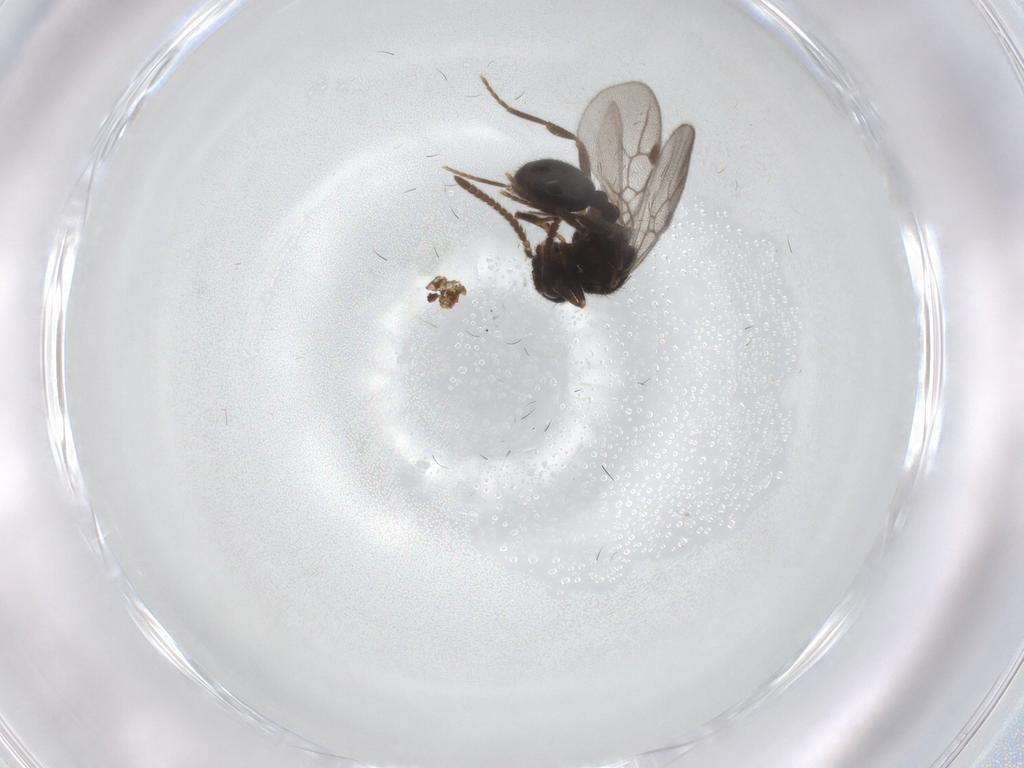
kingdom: Animalia
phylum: Arthropoda
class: Insecta
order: Hymenoptera
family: Formicidae
